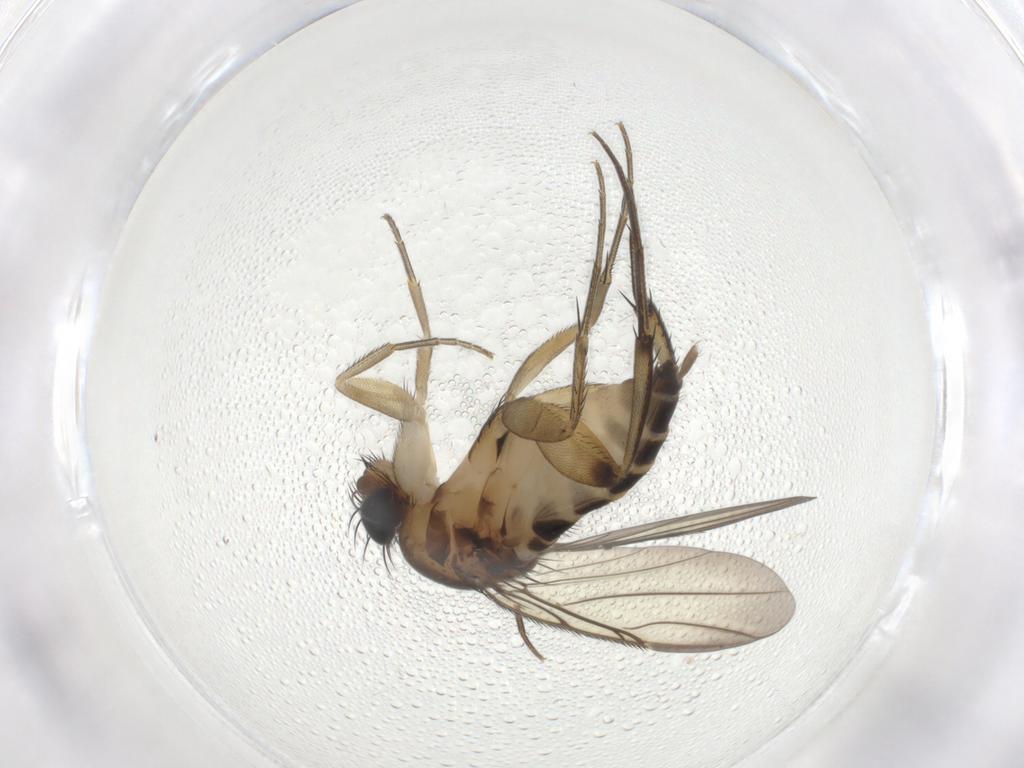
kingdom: Animalia
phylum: Arthropoda
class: Insecta
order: Diptera
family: Phoridae
